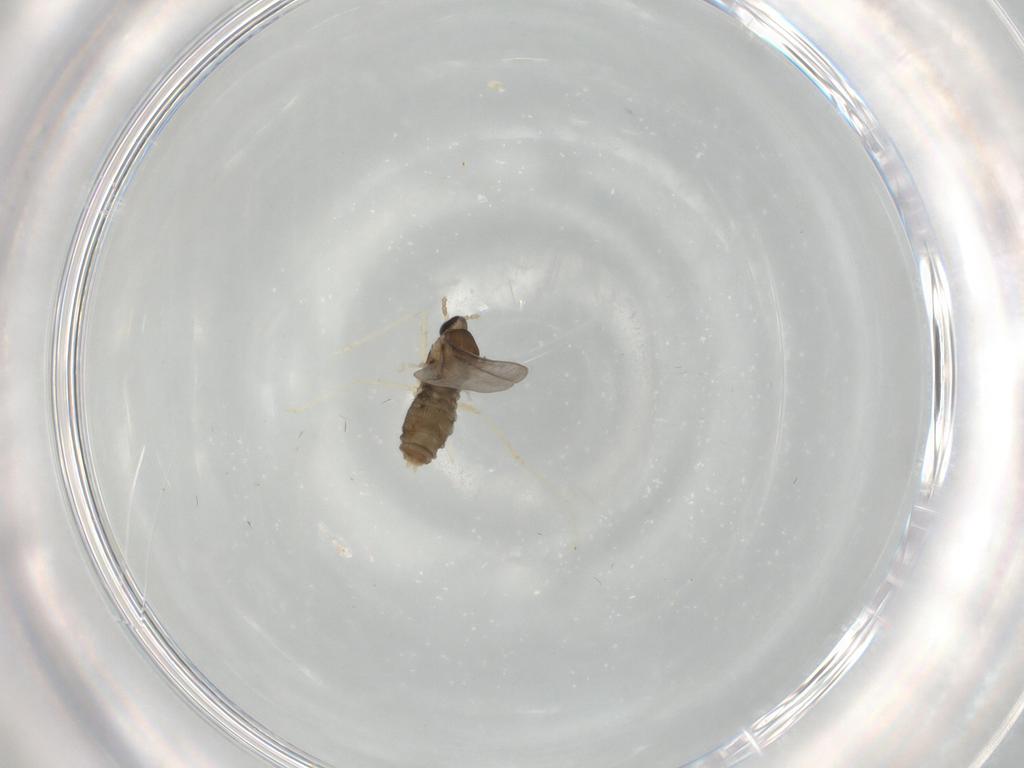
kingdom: Animalia
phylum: Arthropoda
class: Insecta
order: Diptera
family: Cecidomyiidae
